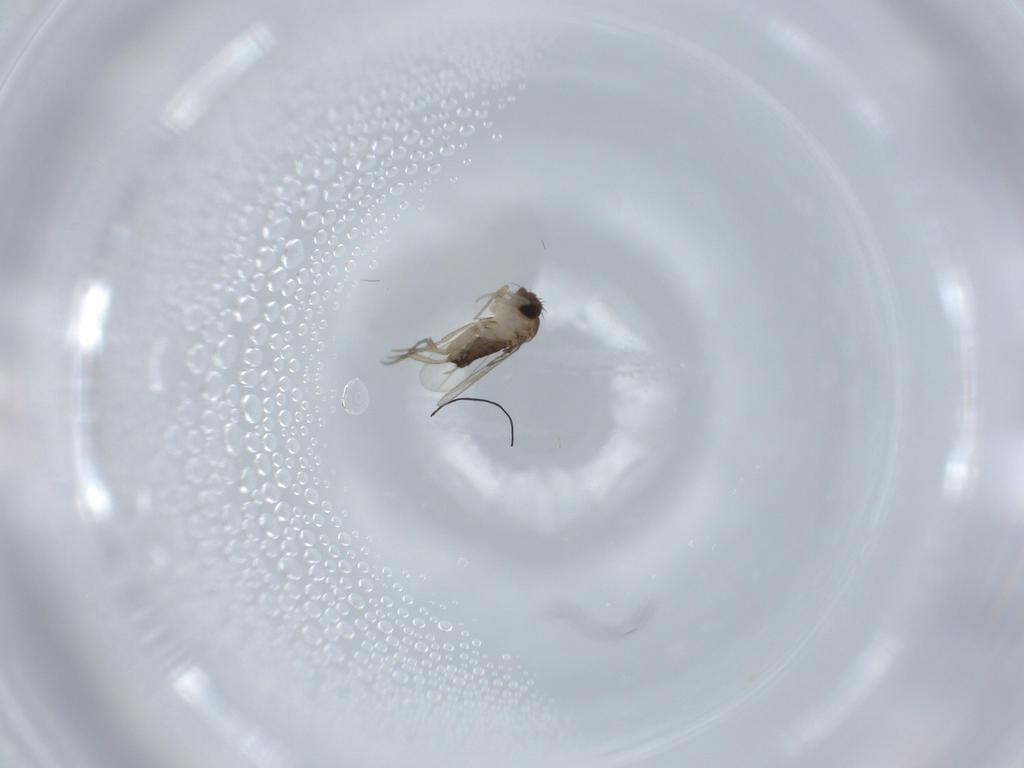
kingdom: Animalia
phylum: Arthropoda
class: Insecta
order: Diptera
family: Phoridae
